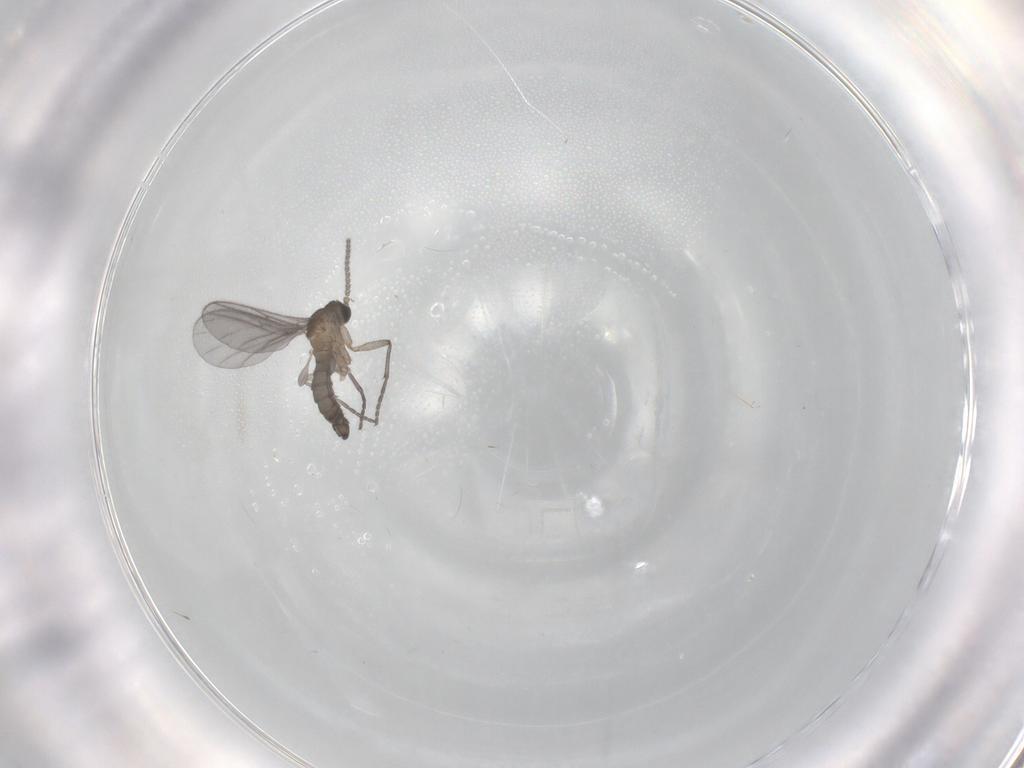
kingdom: Animalia
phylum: Arthropoda
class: Insecta
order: Diptera
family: Sciaridae
